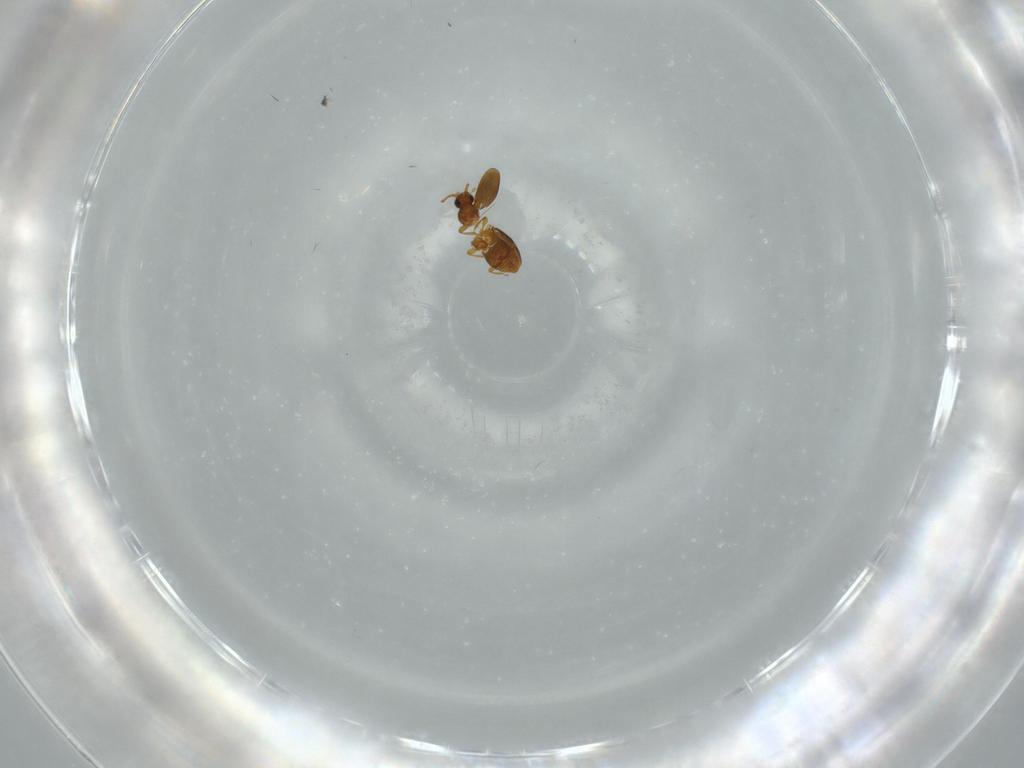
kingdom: Animalia
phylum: Arthropoda
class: Insecta
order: Coleoptera
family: Staphylinidae
